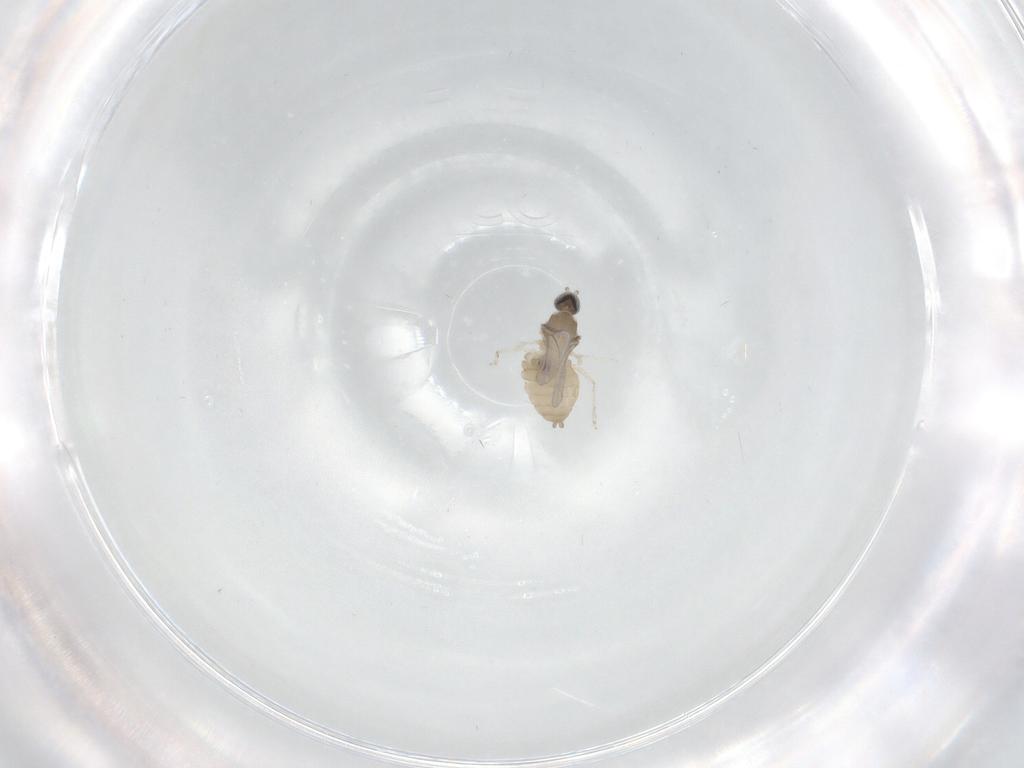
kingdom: Animalia
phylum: Arthropoda
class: Insecta
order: Diptera
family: Cecidomyiidae
